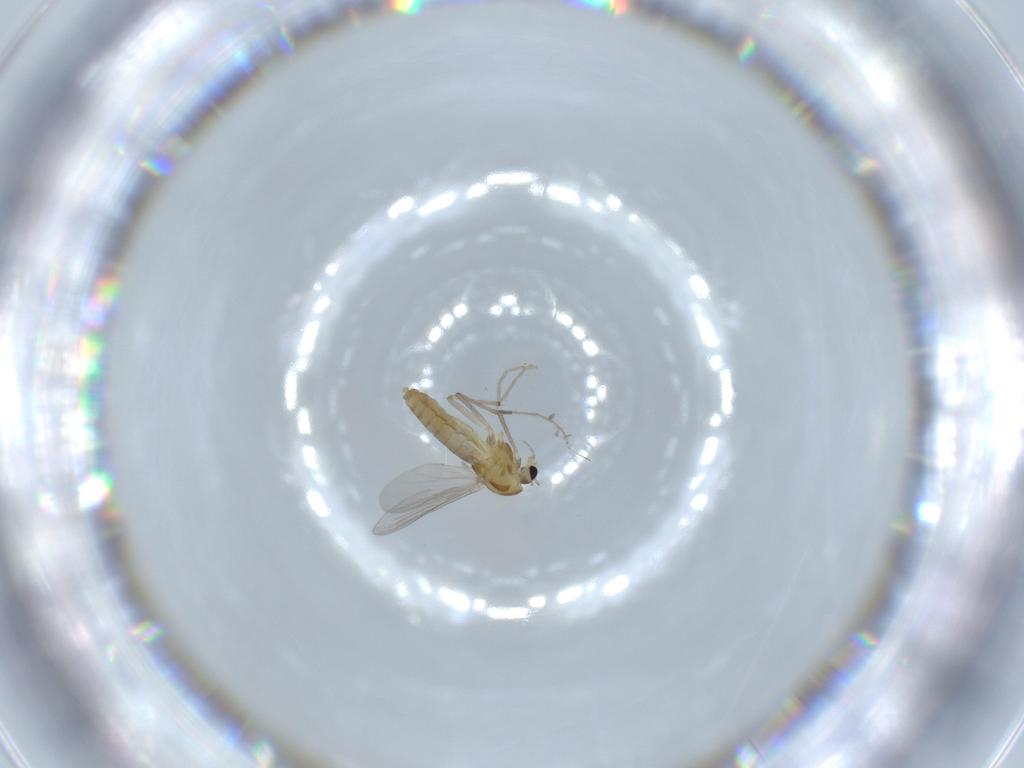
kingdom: Animalia
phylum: Arthropoda
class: Insecta
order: Diptera
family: Chironomidae
